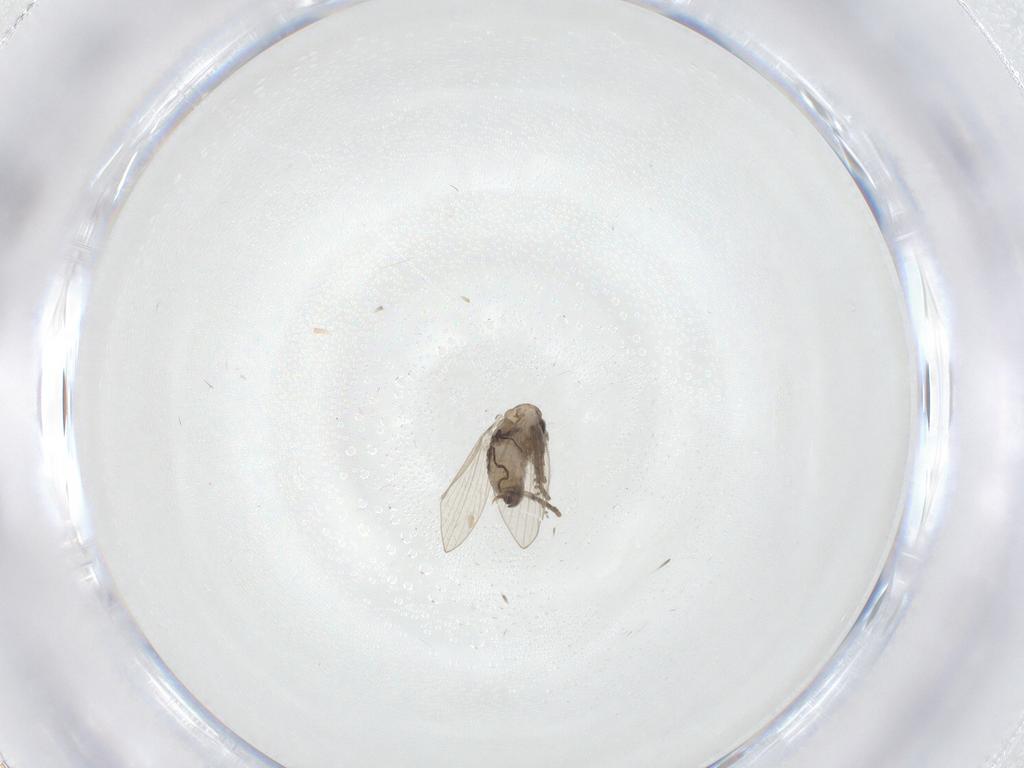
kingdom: Animalia
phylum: Arthropoda
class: Insecta
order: Diptera
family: Psychodidae
